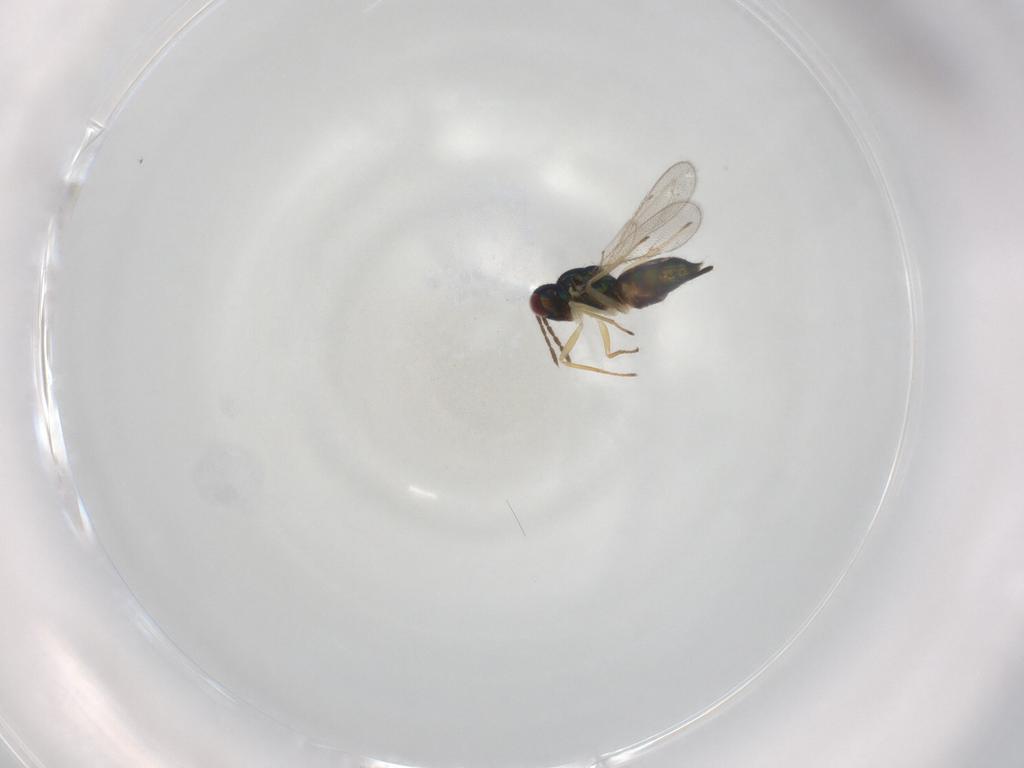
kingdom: Animalia
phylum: Arthropoda
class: Insecta
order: Hymenoptera
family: Eulophidae
